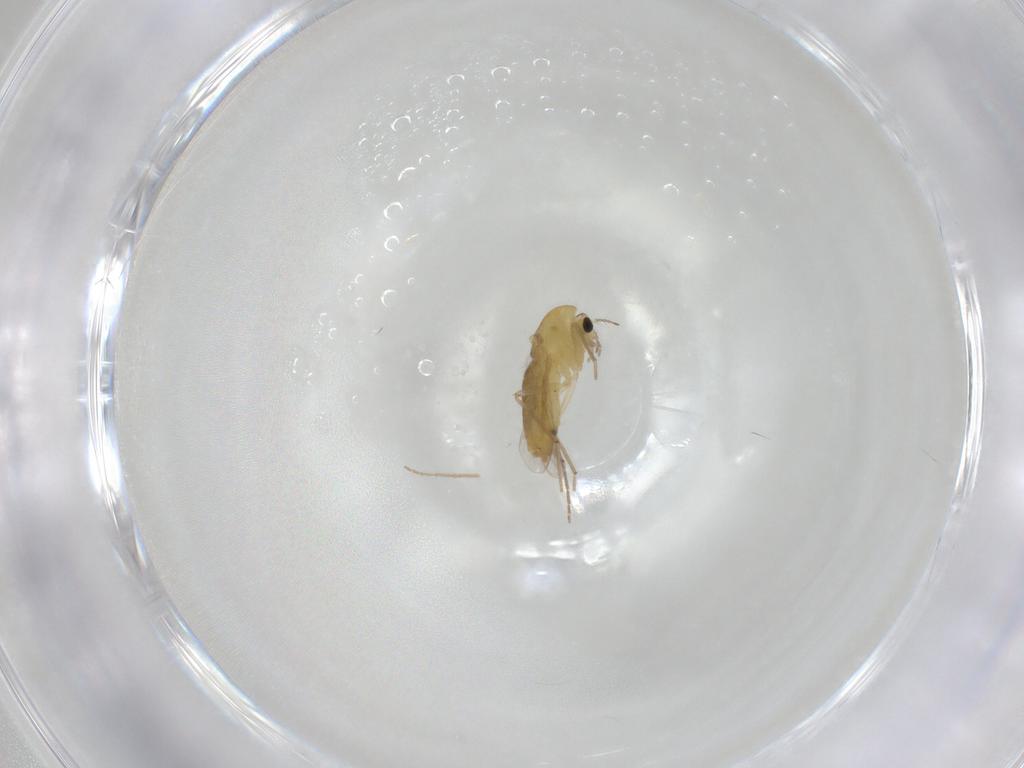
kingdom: Animalia
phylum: Arthropoda
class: Insecta
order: Diptera
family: Chironomidae
